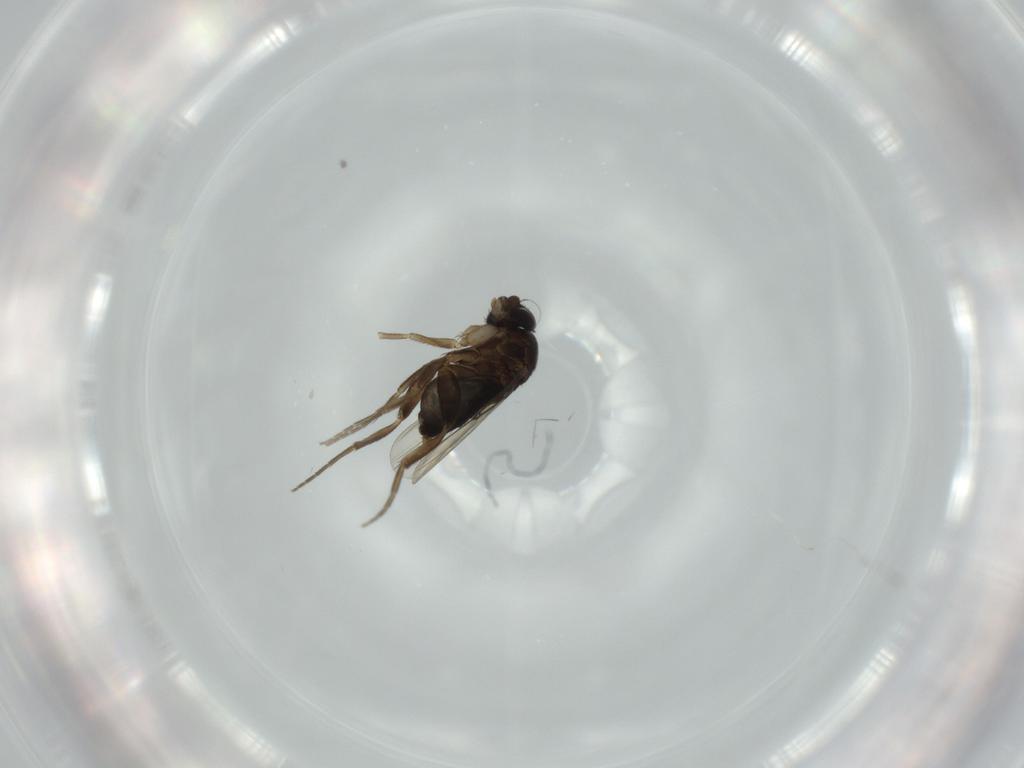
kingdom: Animalia
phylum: Arthropoda
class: Insecta
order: Diptera
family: Phoridae
